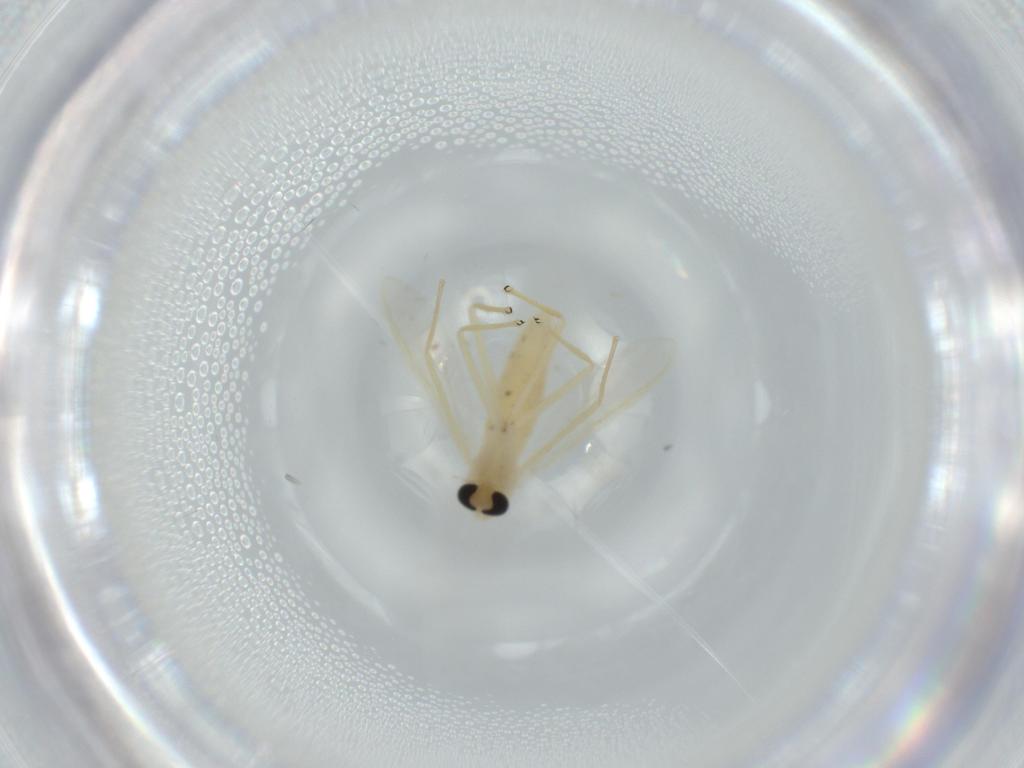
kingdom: Animalia
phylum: Arthropoda
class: Insecta
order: Diptera
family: Chironomidae
